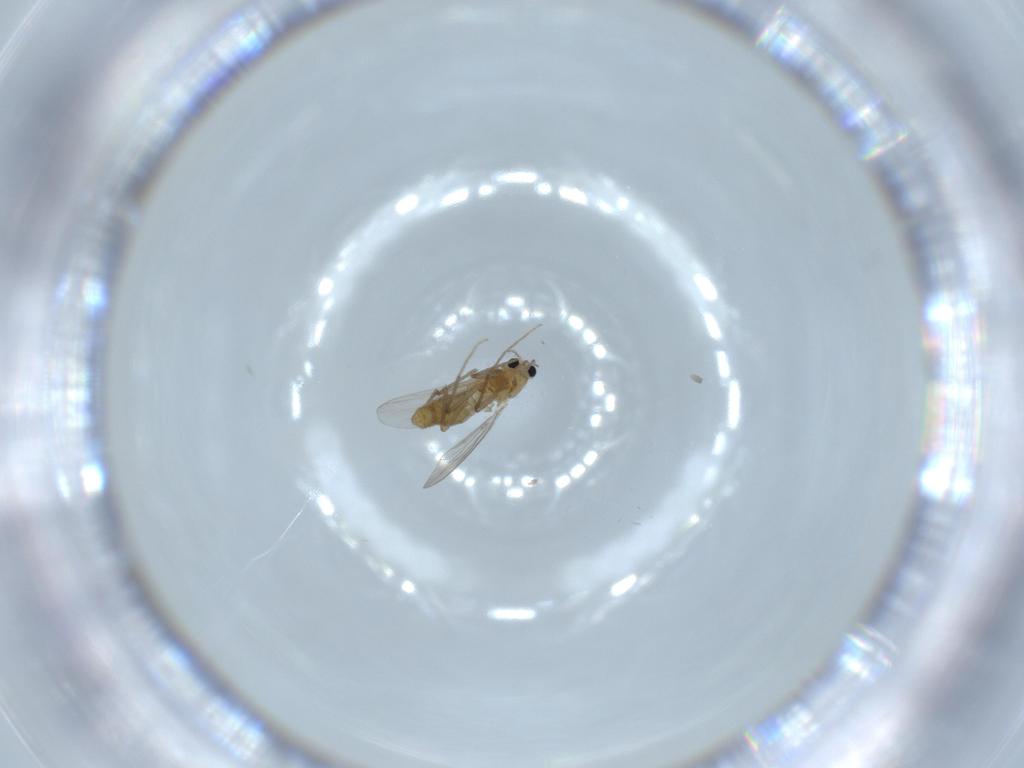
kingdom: Animalia
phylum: Arthropoda
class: Insecta
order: Diptera
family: Chironomidae
